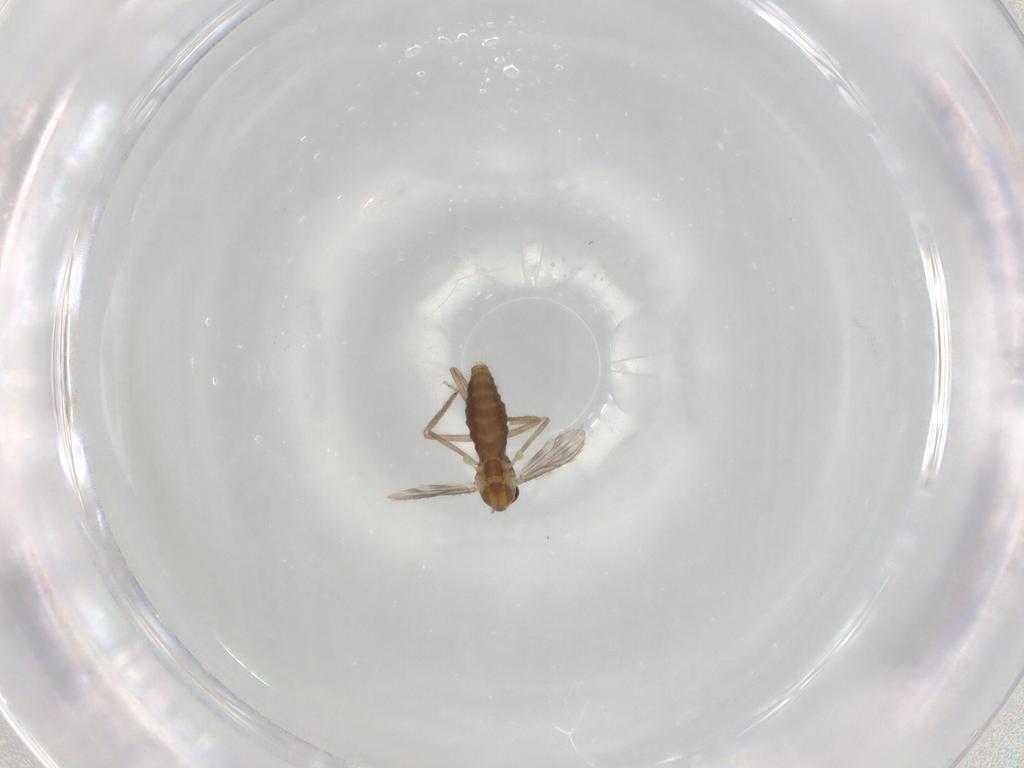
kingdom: Animalia
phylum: Arthropoda
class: Insecta
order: Diptera
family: Chironomidae
